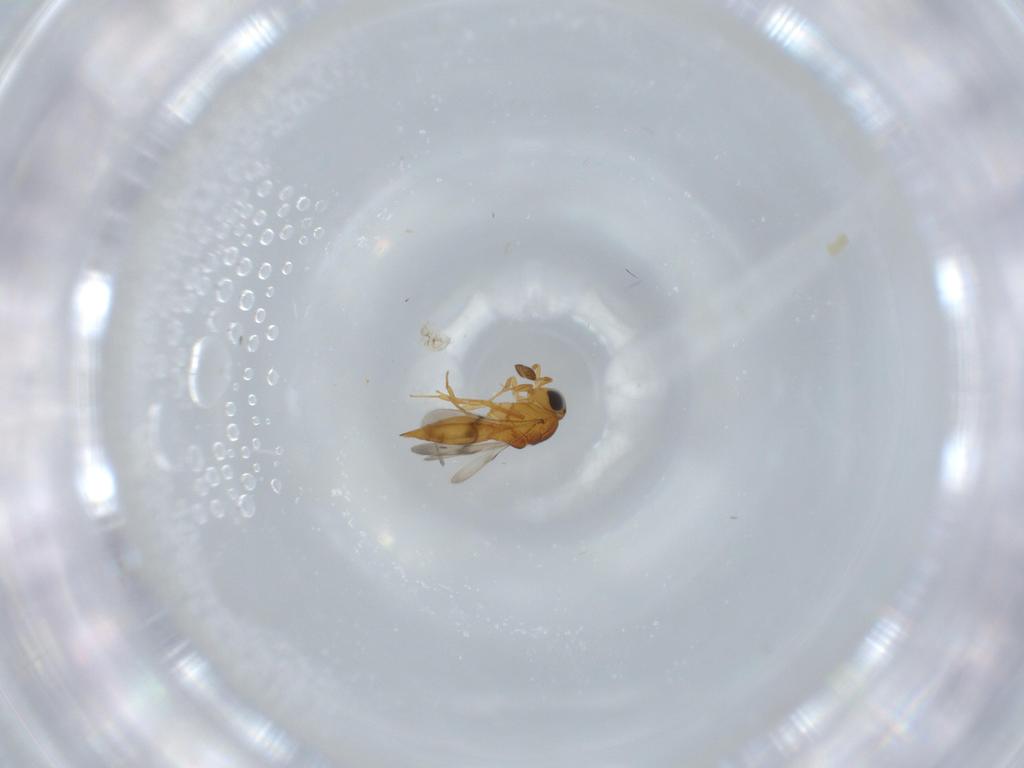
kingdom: Animalia
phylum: Arthropoda
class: Insecta
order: Hymenoptera
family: Scelionidae
